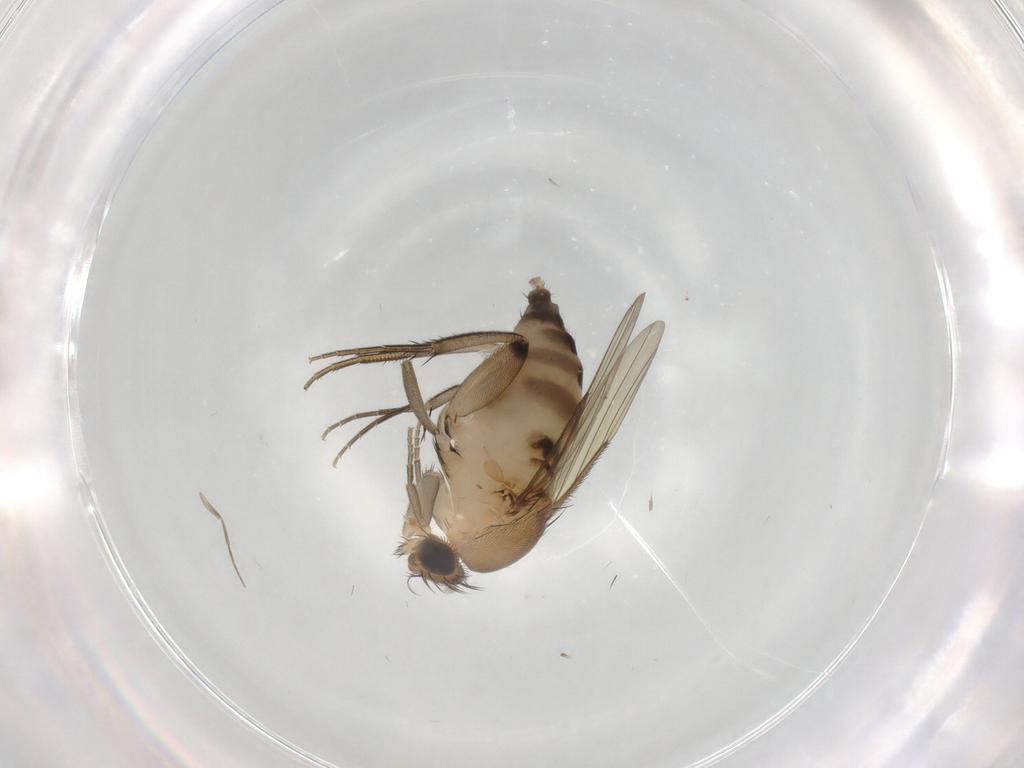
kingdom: Animalia
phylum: Arthropoda
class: Insecta
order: Diptera
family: Phoridae
